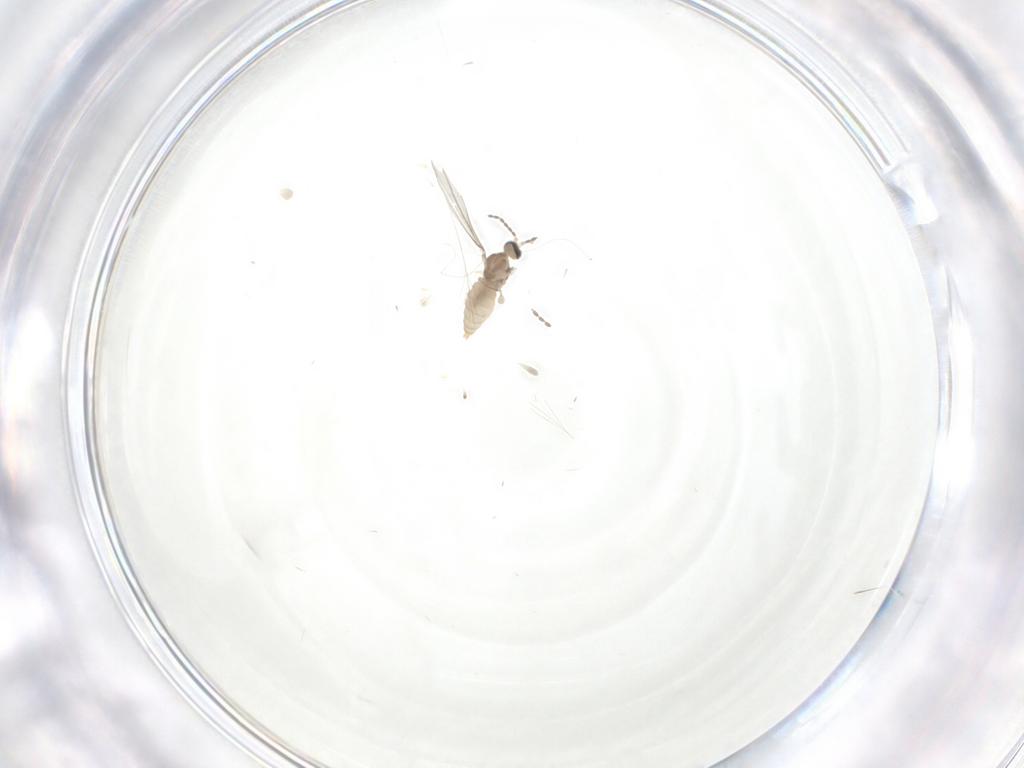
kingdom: Animalia
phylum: Arthropoda
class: Insecta
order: Diptera
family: Cecidomyiidae
